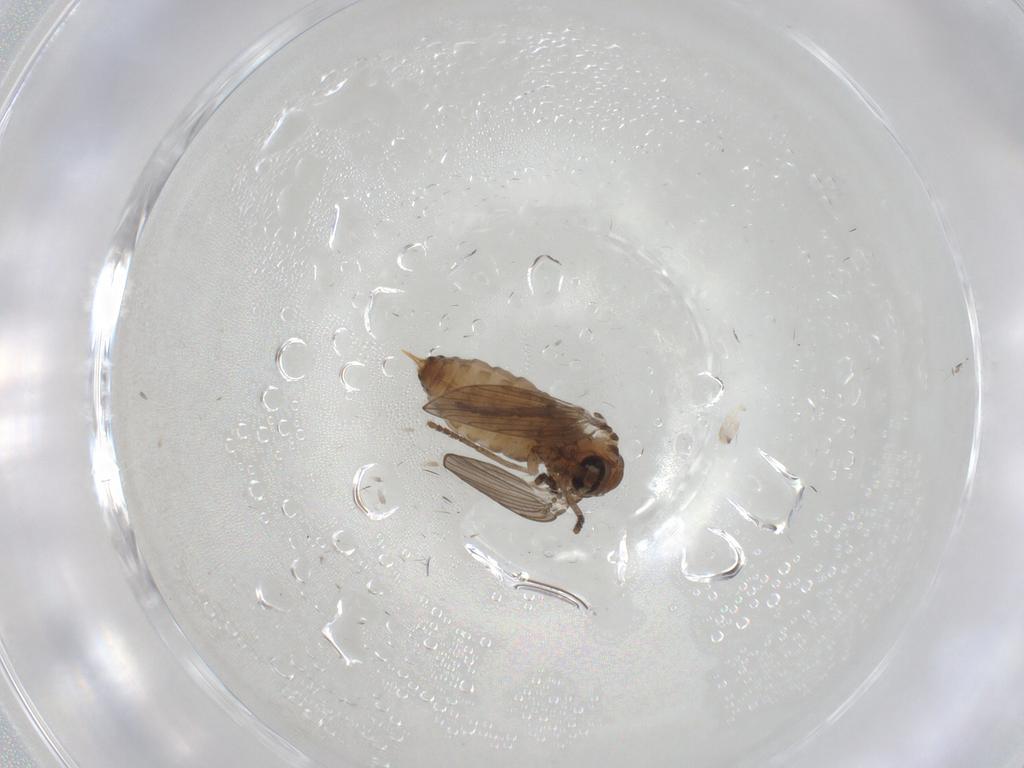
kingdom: Animalia
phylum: Arthropoda
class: Insecta
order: Diptera
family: Psychodidae
